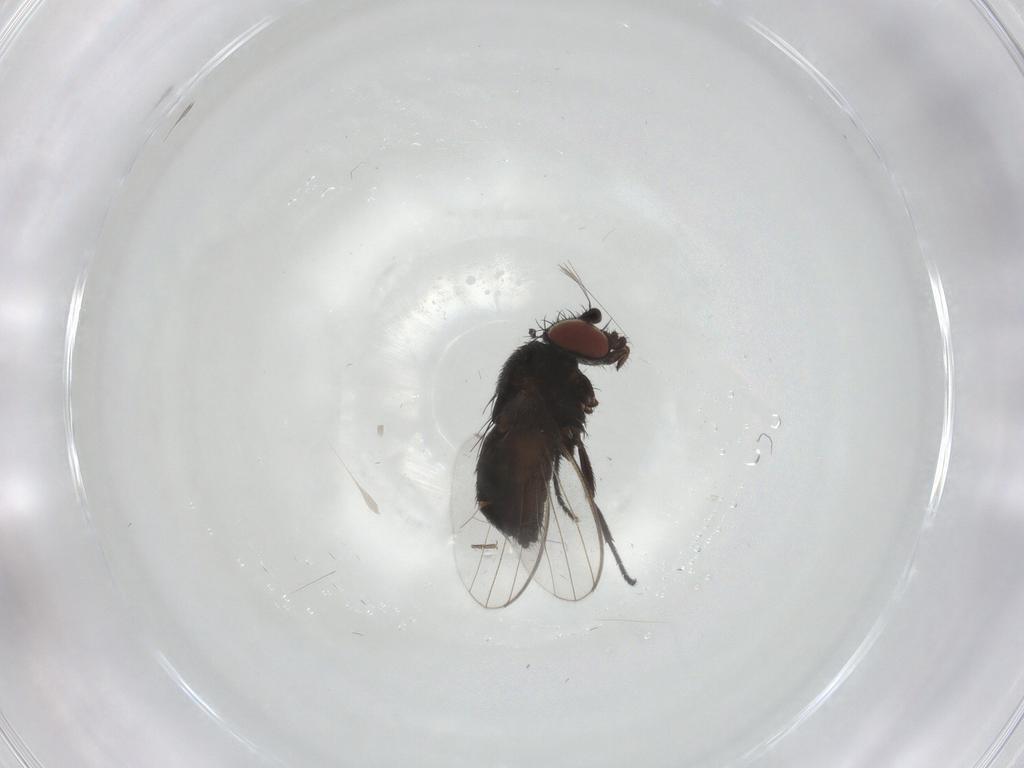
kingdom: Animalia
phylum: Arthropoda
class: Insecta
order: Diptera
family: Milichiidae
